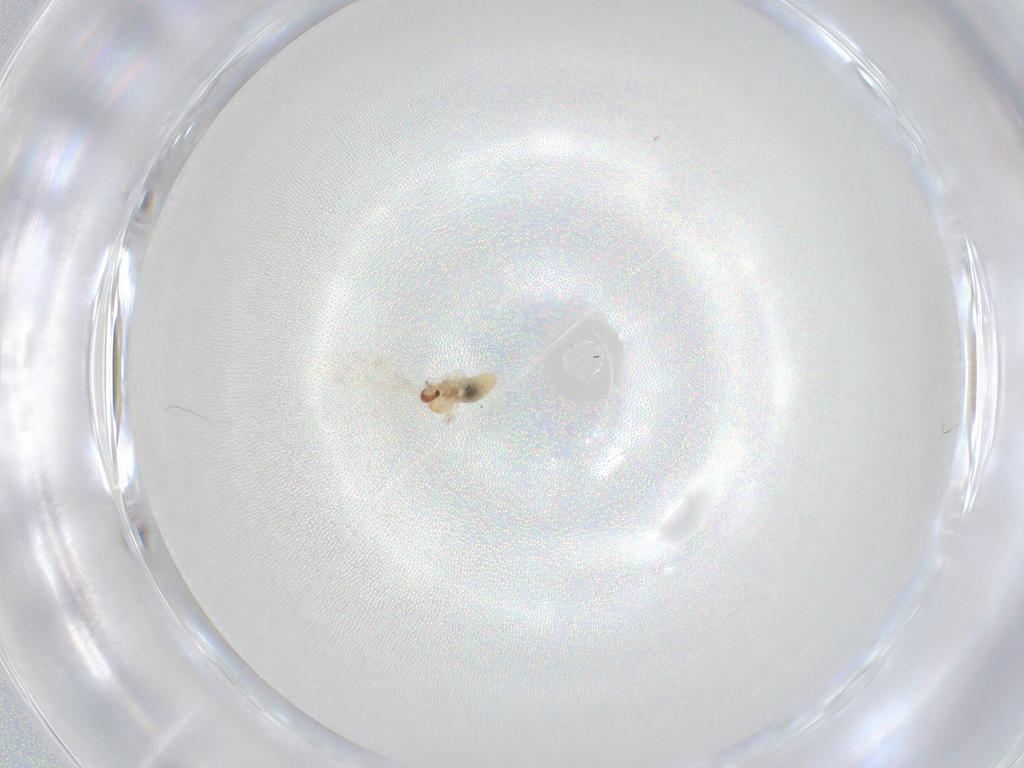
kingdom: Animalia
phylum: Arthropoda
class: Insecta
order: Diptera
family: Cecidomyiidae
